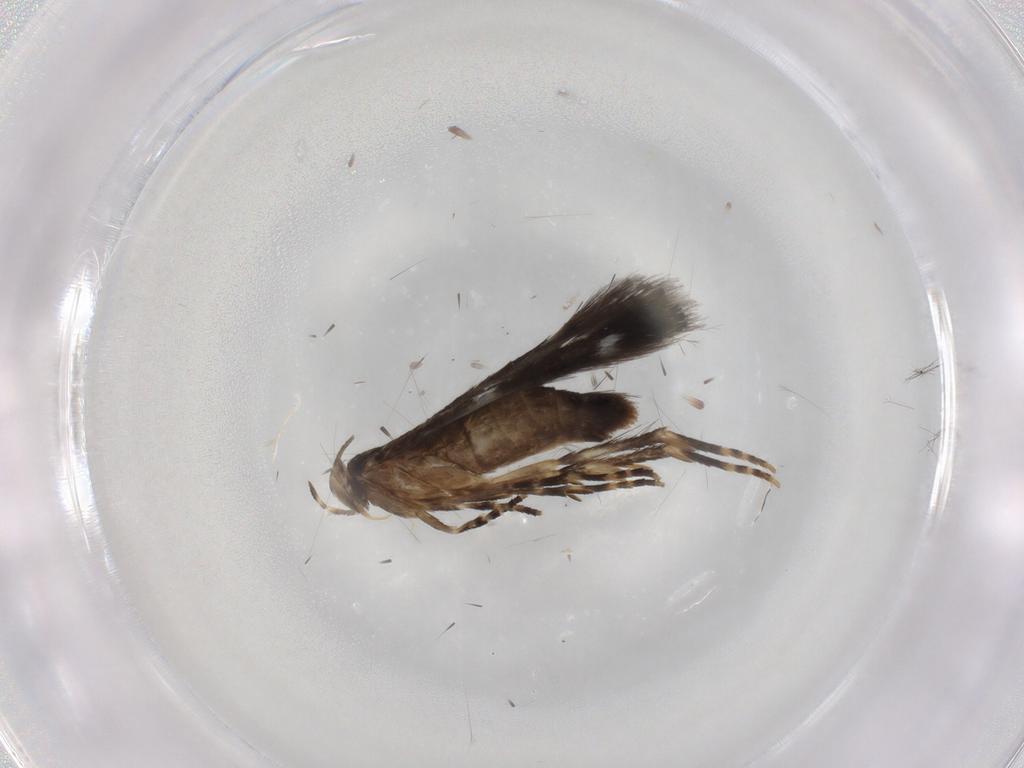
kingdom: Animalia
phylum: Arthropoda
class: Insecta
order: Lepidoptera
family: Elachistidae
